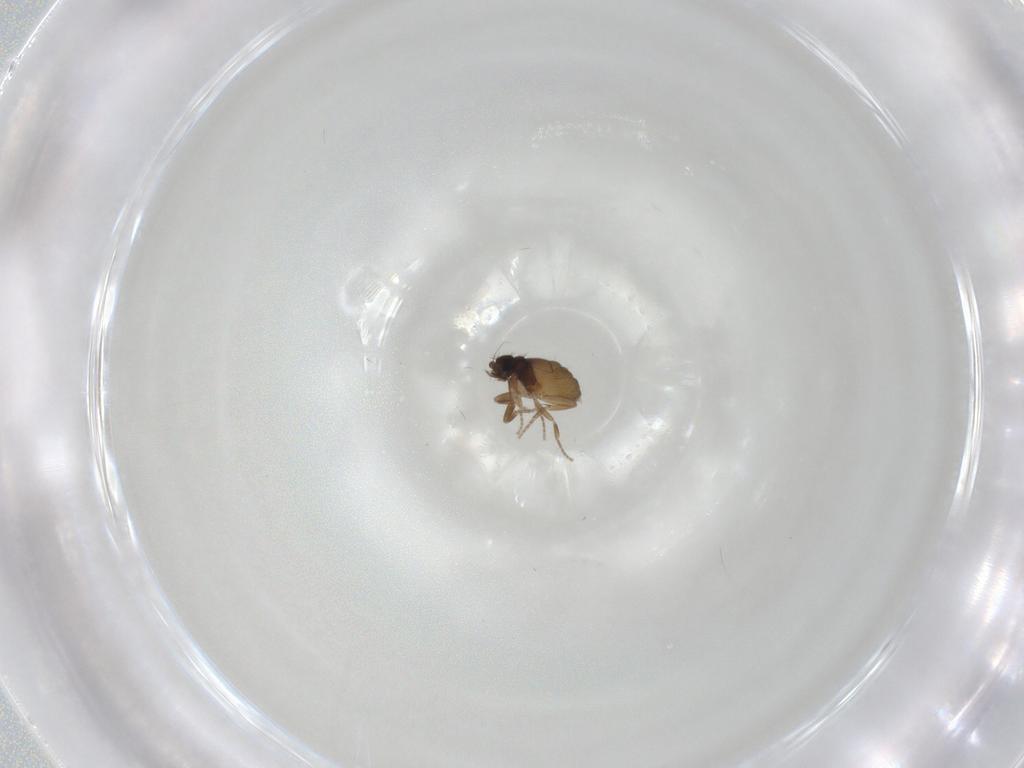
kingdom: Animalia
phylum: Arthropoda
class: Insecta
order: Diptera
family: Phoridae
